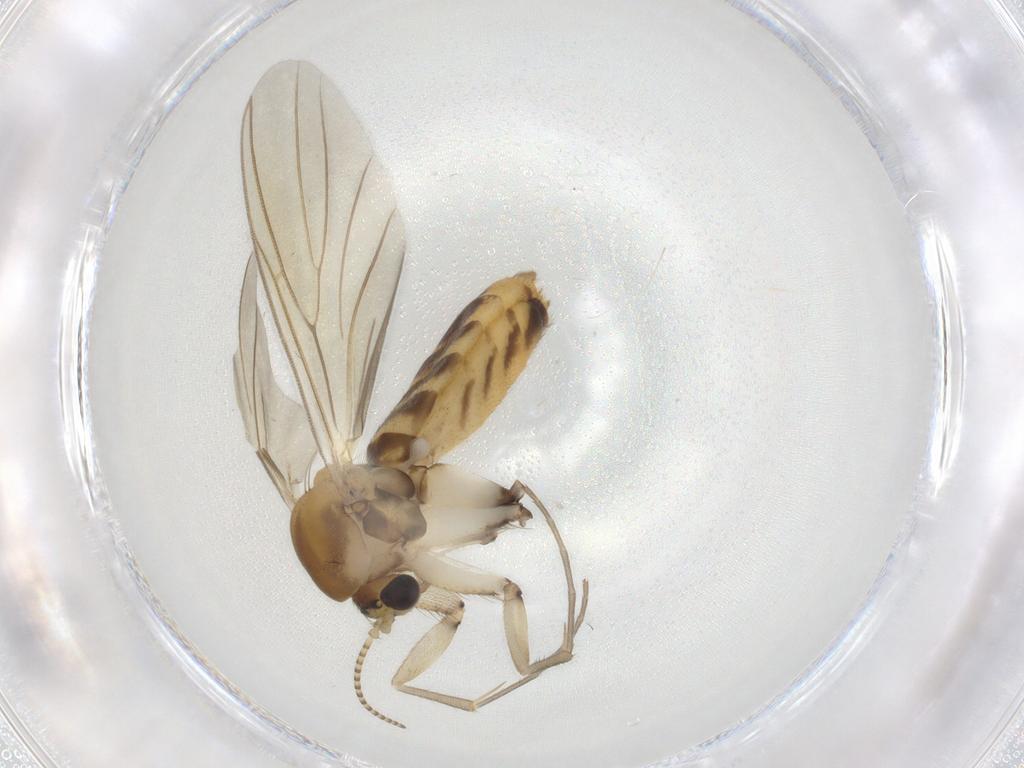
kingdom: Animalia
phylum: Arthropoda
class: Insecta
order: Diptera
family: Mycetophilidae
